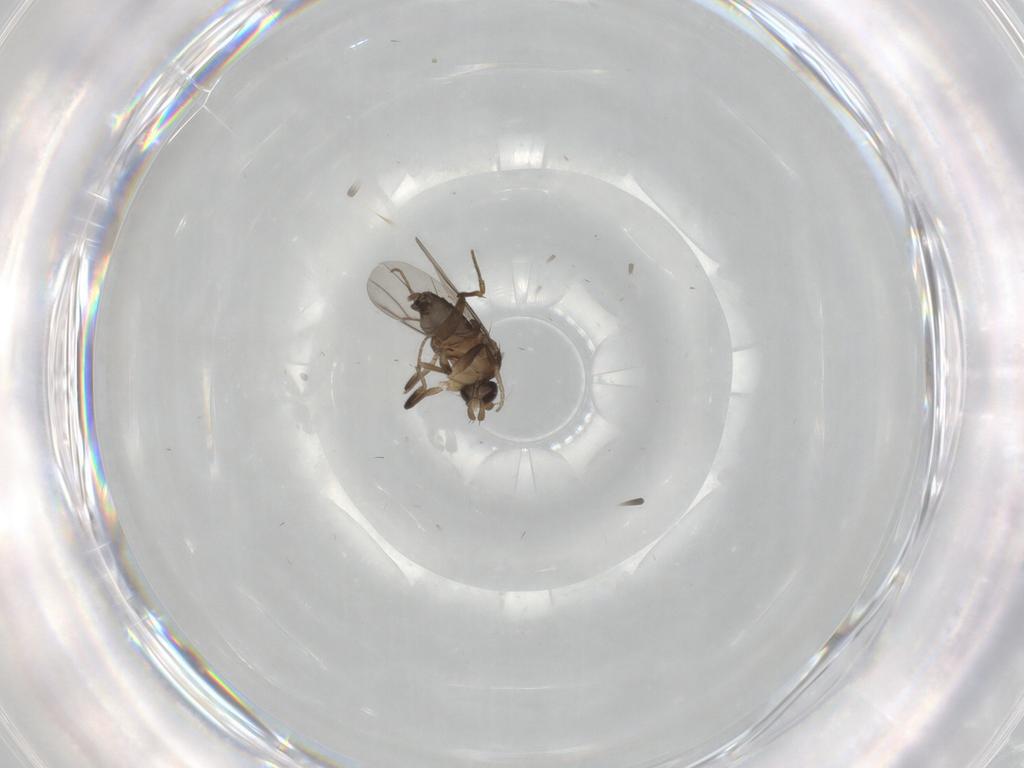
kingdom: Animalia
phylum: Arthropoda
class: Insecta
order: Diptera
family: Phoridae
